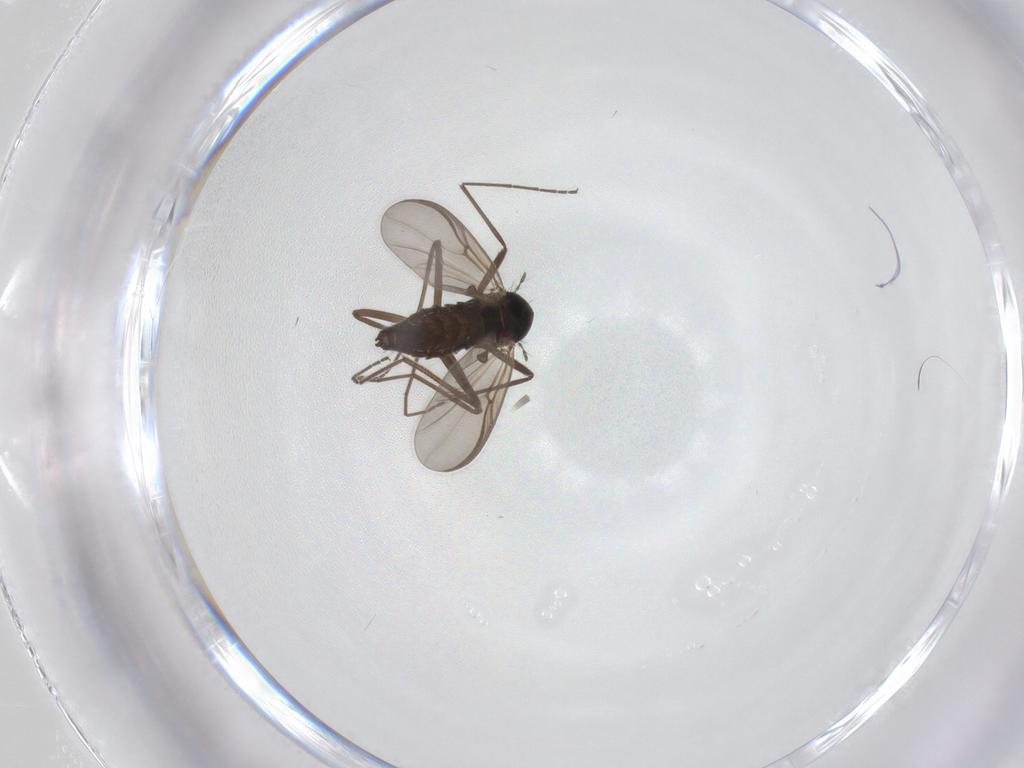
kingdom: Animalia
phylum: Arthropoda
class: Insecta
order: Diptera
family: Chironomidae
